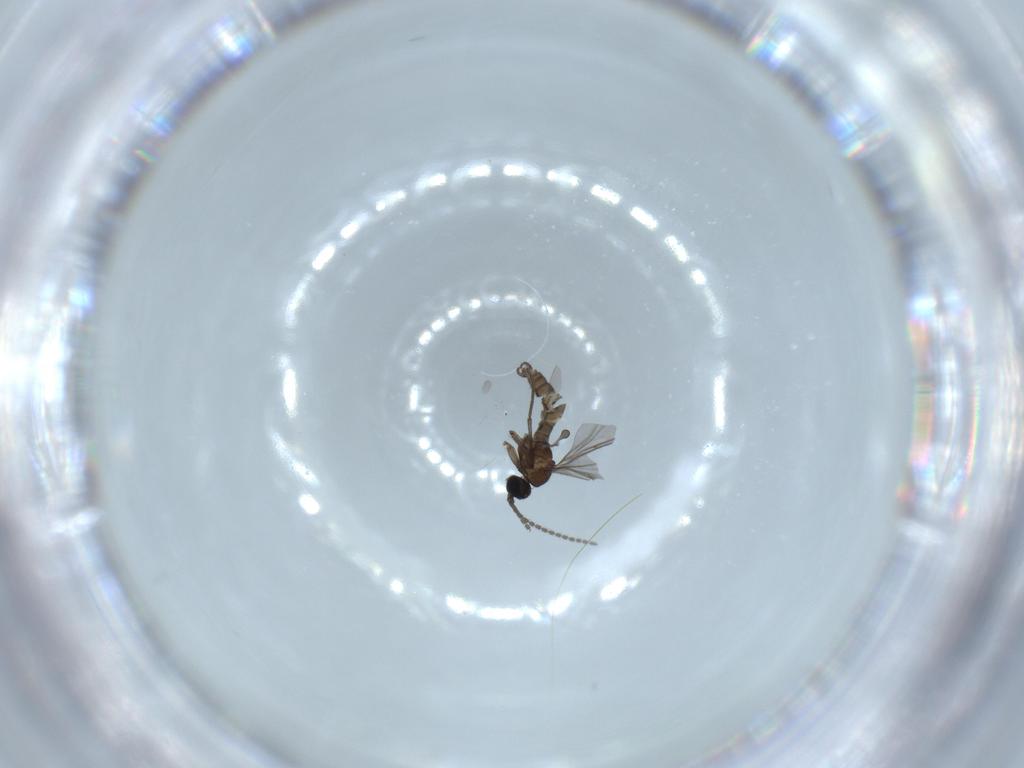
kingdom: Animalia
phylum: Arthropoda
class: Insecta
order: Diptera
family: Sciaridae
